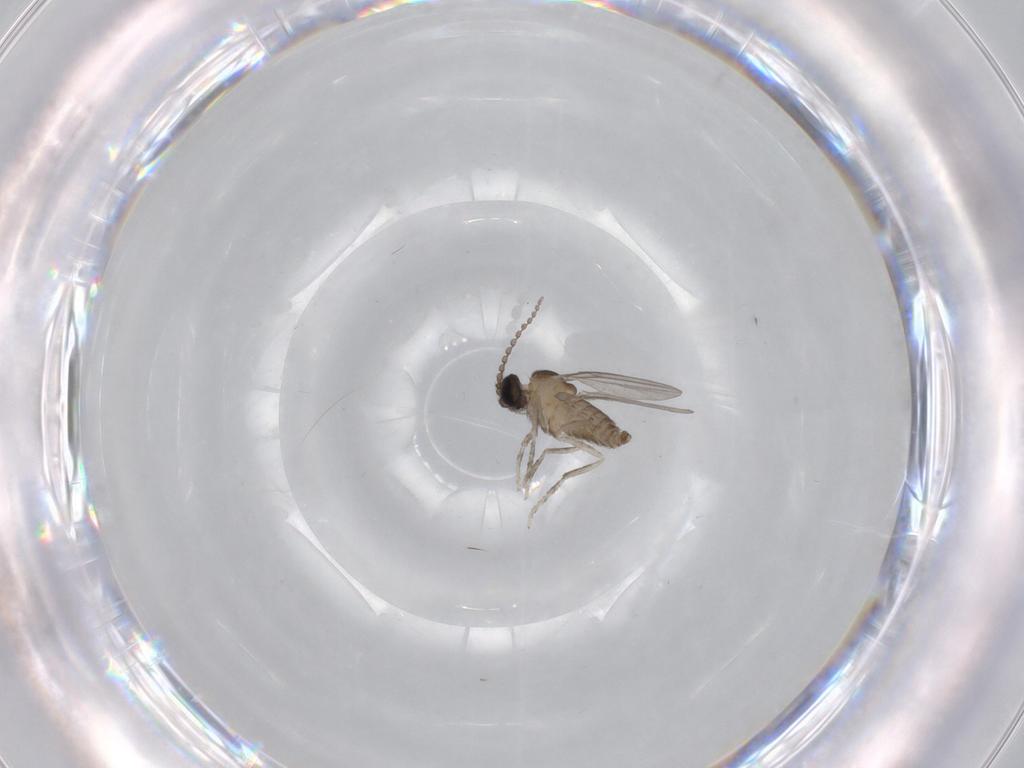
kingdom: Animalia
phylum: Arthropoda
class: Insecta
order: Diptera
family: Cecidomyiidae
